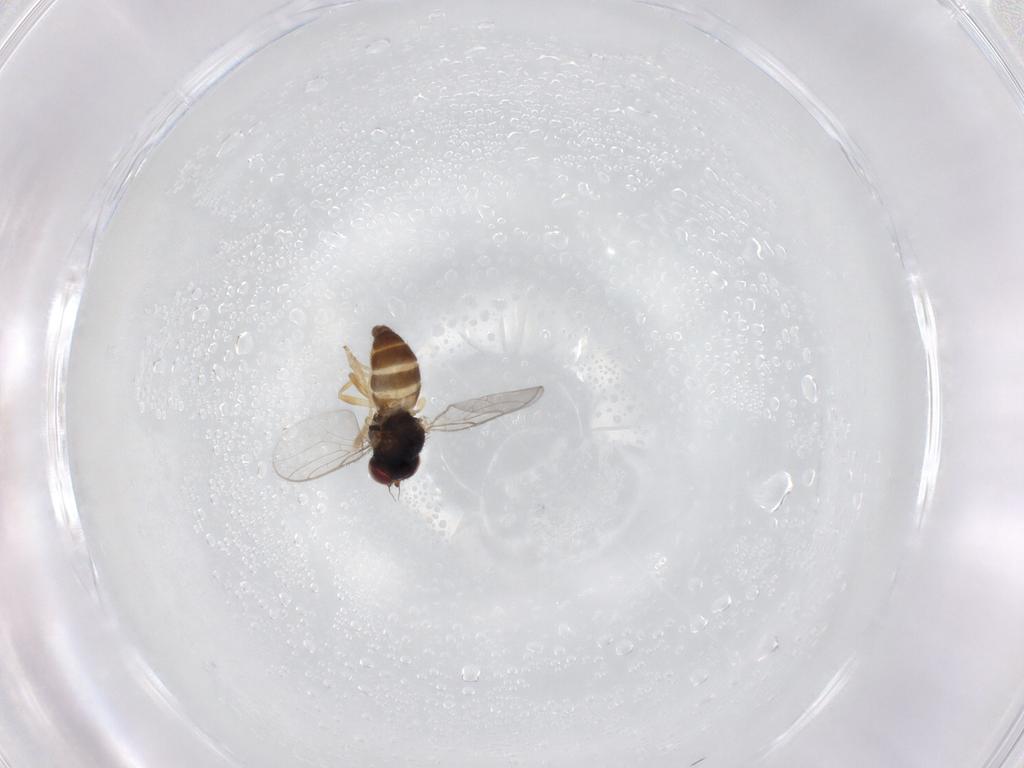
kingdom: Animalia
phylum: Arthropoda
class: Insecta
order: Diptera
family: Chloropidae
